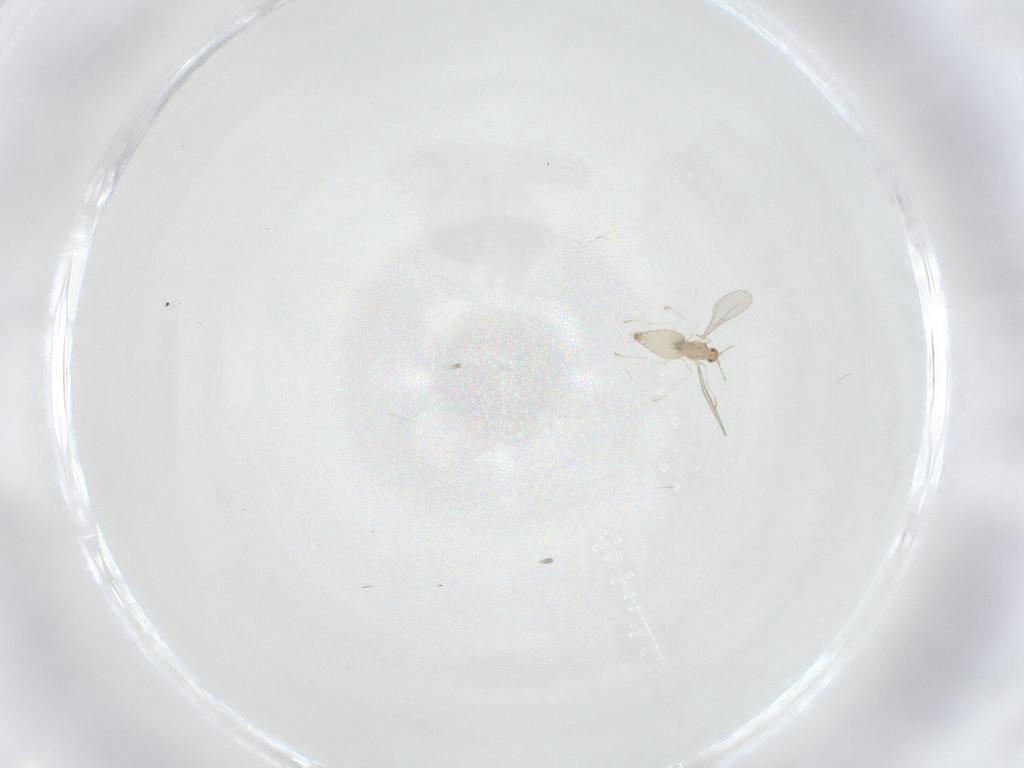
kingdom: Animalia
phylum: Arthropoda
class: Insecta
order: Diptera
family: Cecidomyiidae
